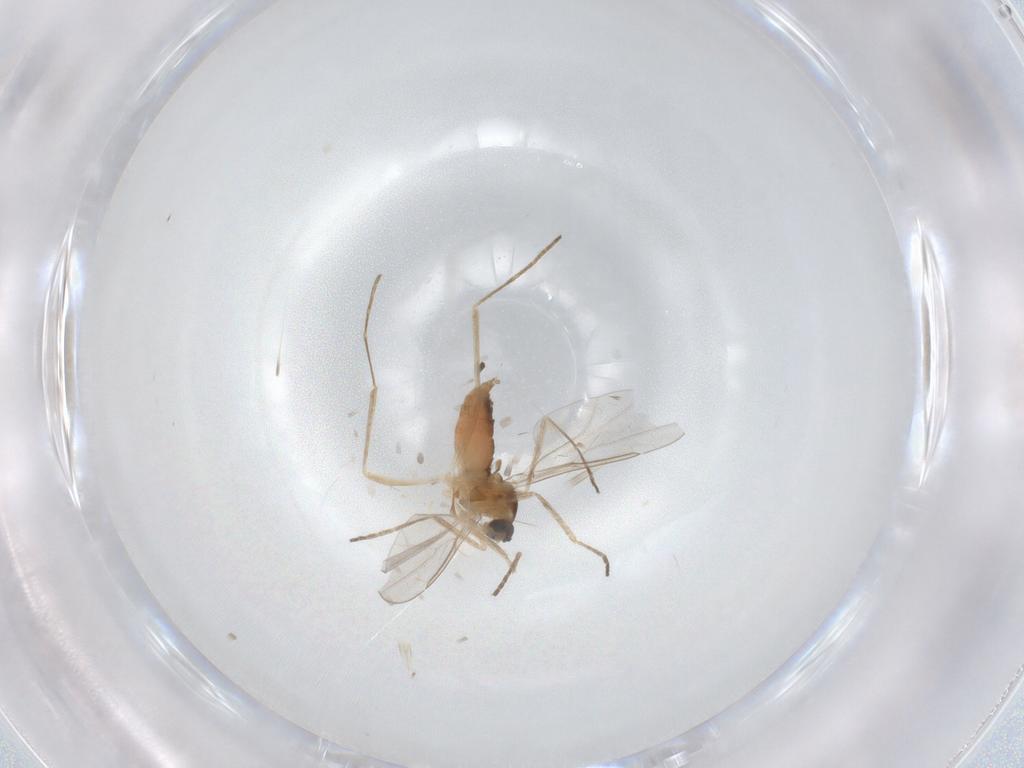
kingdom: Animalia
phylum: Arthropoda
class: Insecta
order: Diptera
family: Cecidomyiidae
